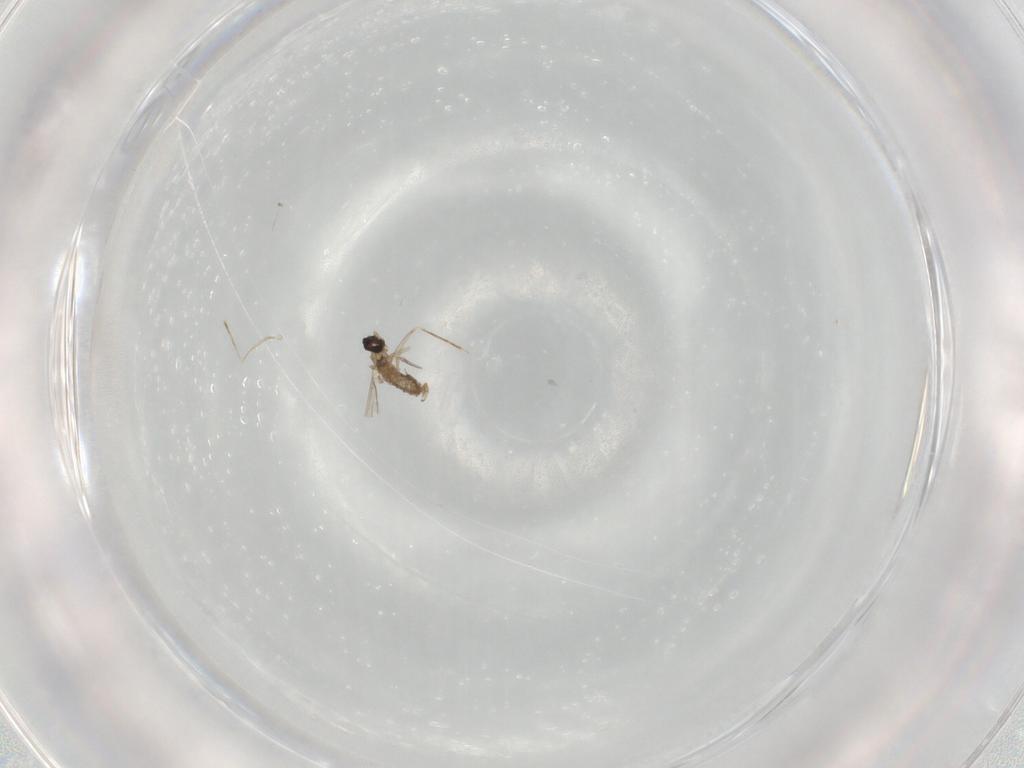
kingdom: Animalia
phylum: Arthropoda
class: Insecta
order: Diptera
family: Cecidomyiidae
